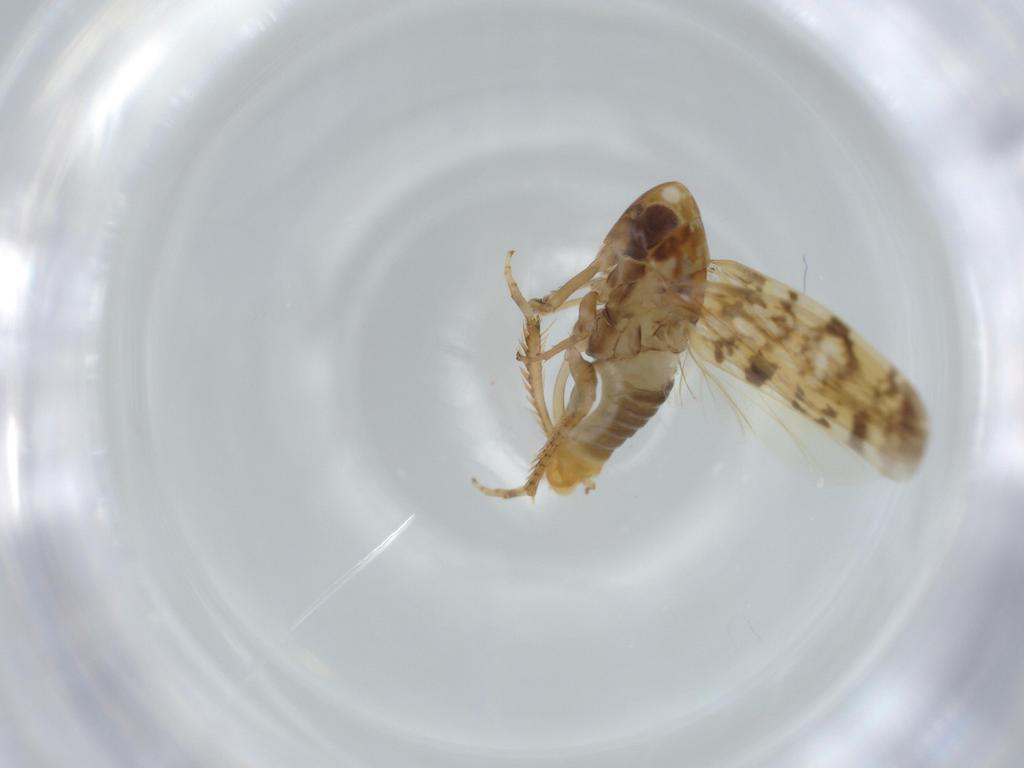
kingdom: Animalia
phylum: Arthropoda
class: Insecta
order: Hemiptera
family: Cicadellidae
